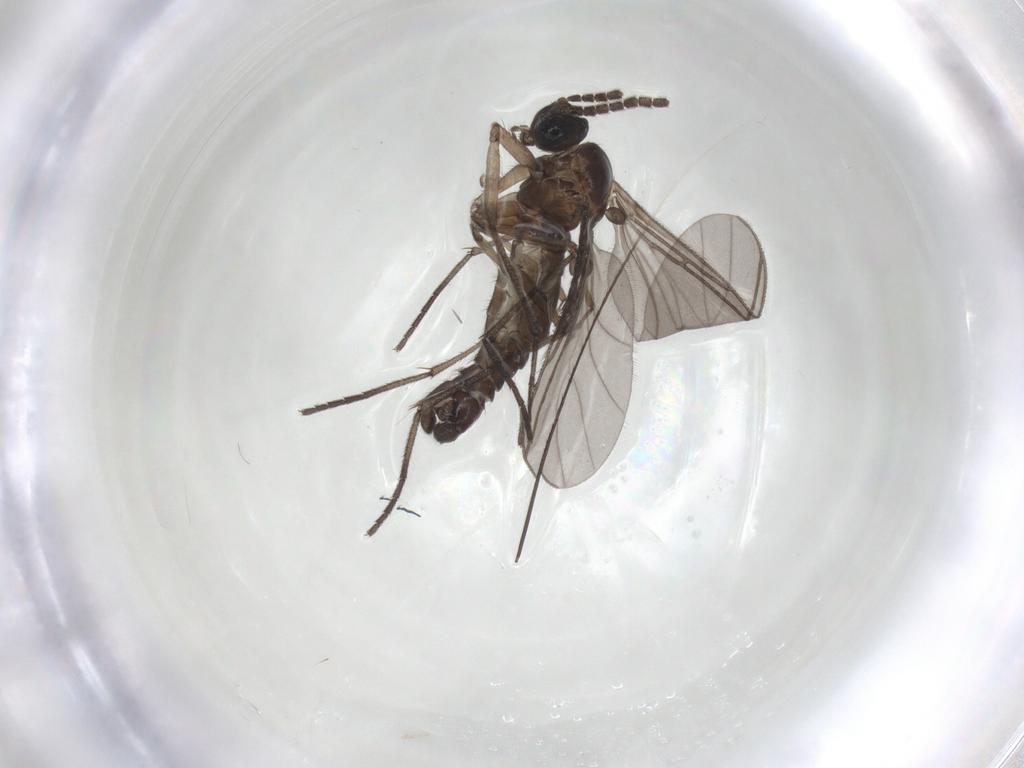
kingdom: Animalia
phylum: Arthropoda
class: Insecta
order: Diptera
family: Sciaridae
